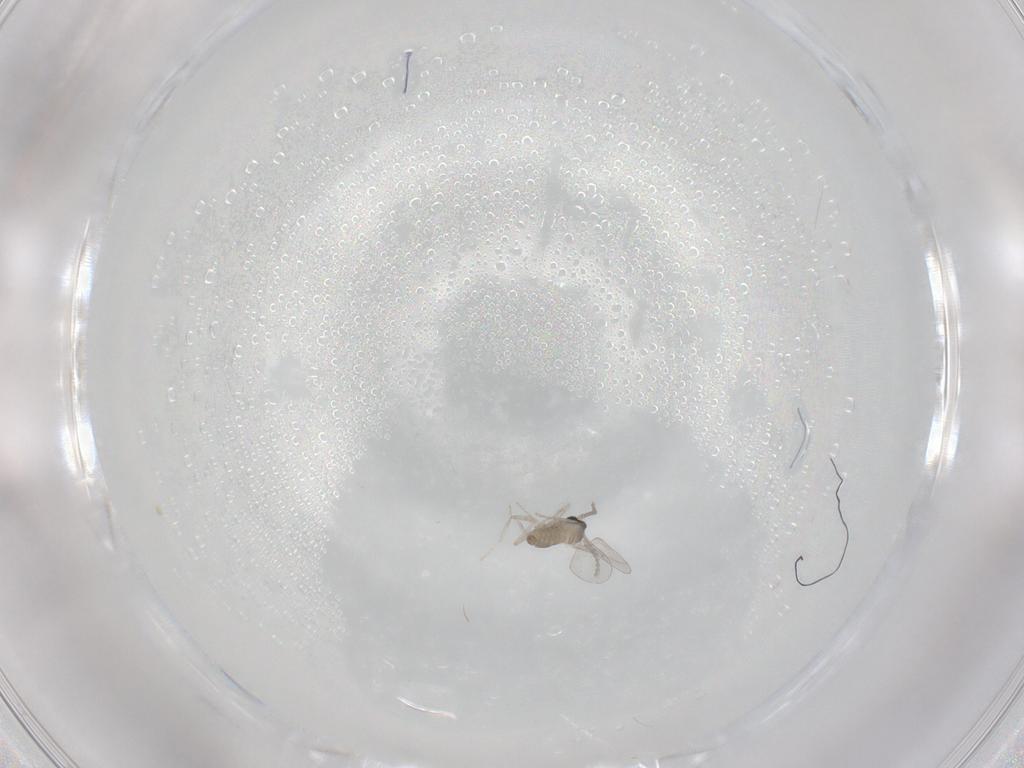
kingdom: Animalia
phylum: Arthropoda
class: Insecta
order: Diptera
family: Cecidomyiidae
